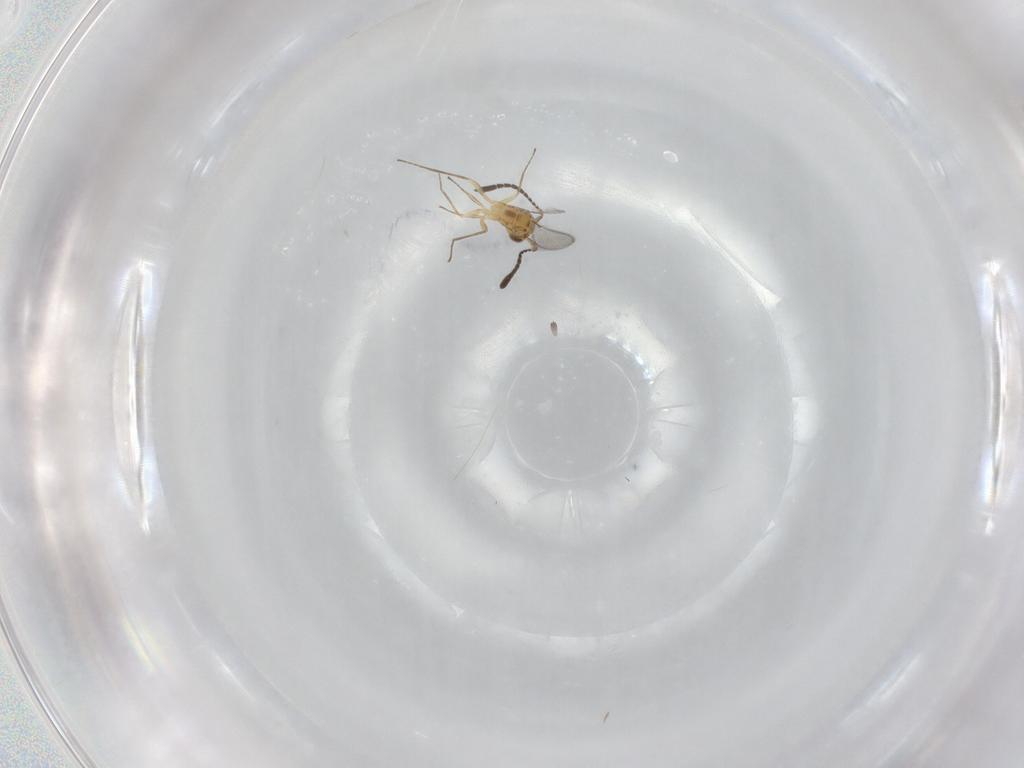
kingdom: Animalia
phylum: Arthropoda
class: Insecta
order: Hymenoptera
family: Mymaridae
